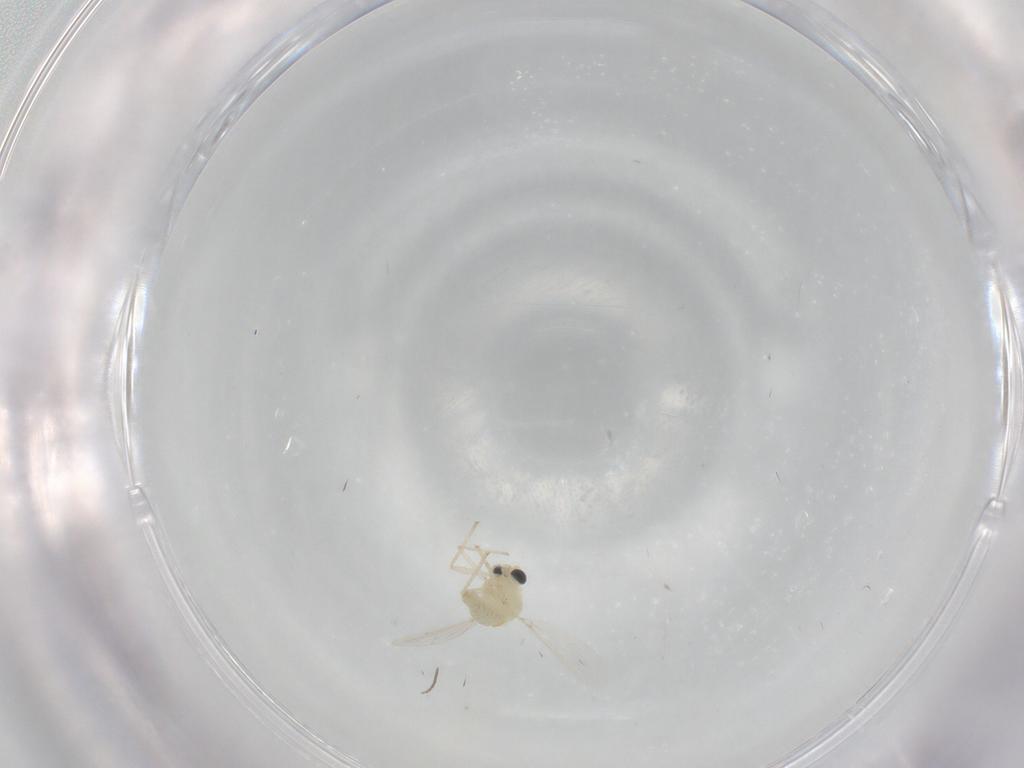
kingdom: Animalia
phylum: Arthropoda
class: Insecta
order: Diptera
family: Chironomidae
